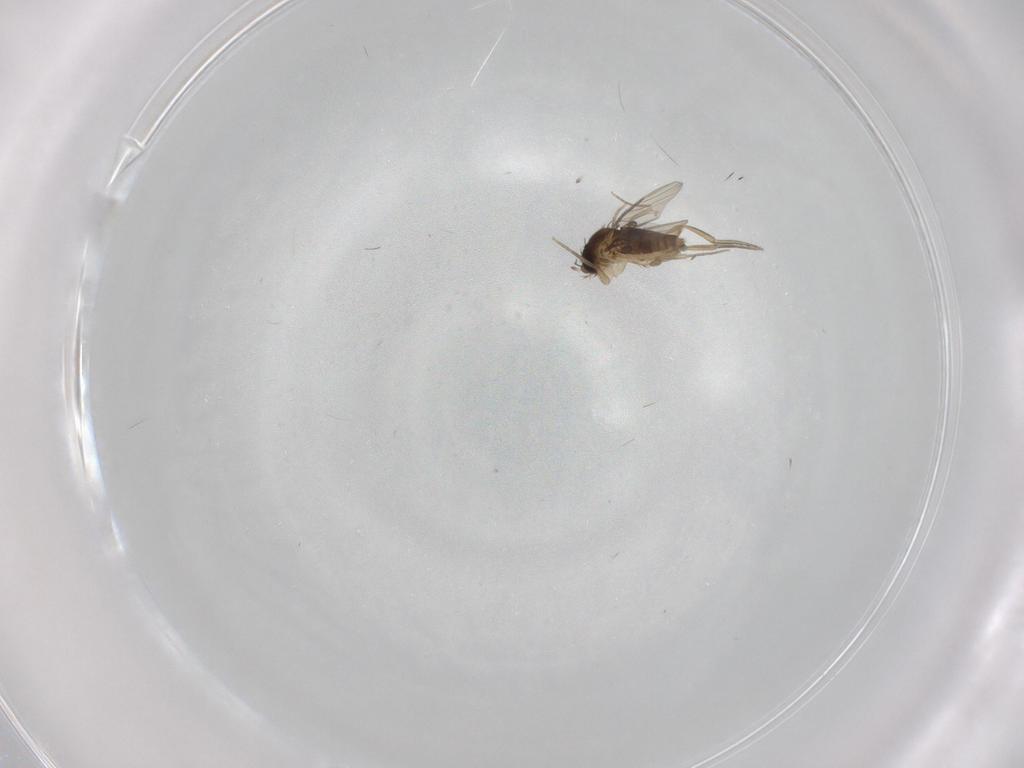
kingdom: Animalia
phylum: Arthropoda
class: Insecta
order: Diptera
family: Phoridae
